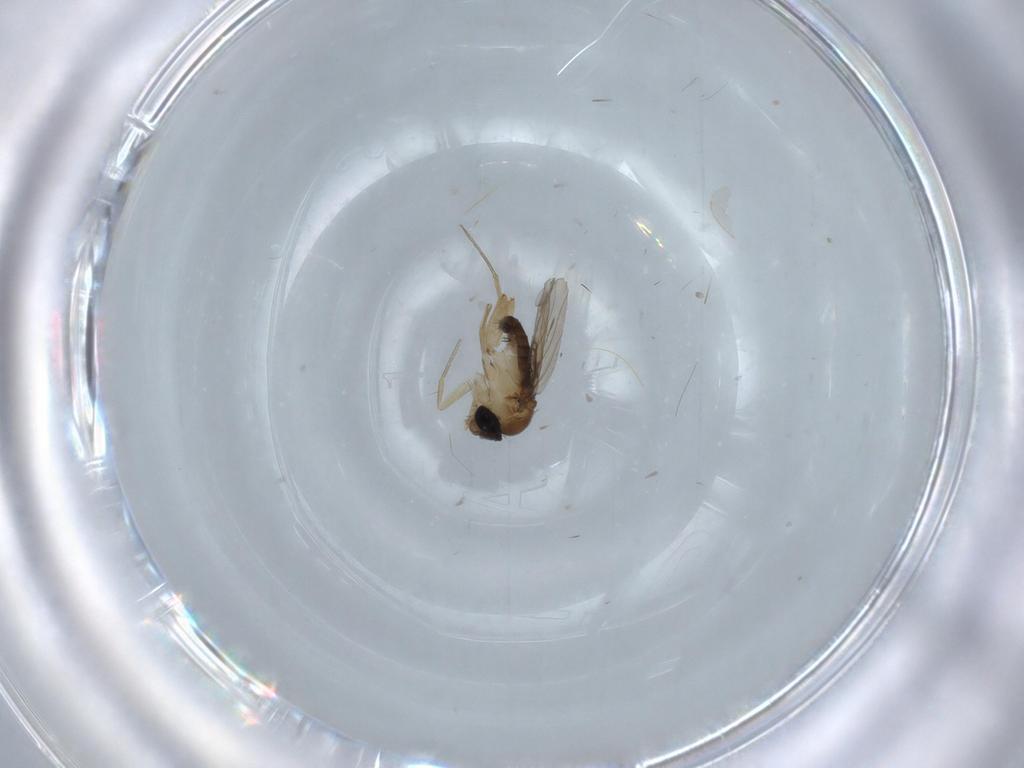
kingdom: Animalia
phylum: Arthropoda
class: Insecta
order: Diptera
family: Phoridae
